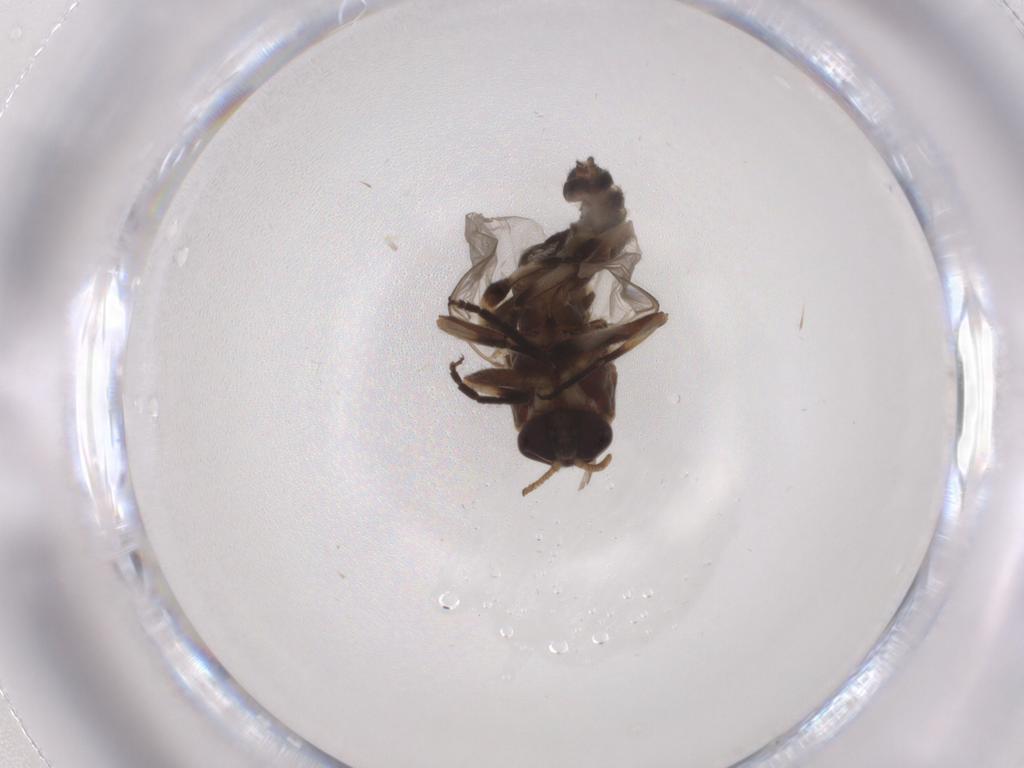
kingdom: Animalia
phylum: Arthropoda
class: Insecta
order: Diptera
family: Simuliidae
